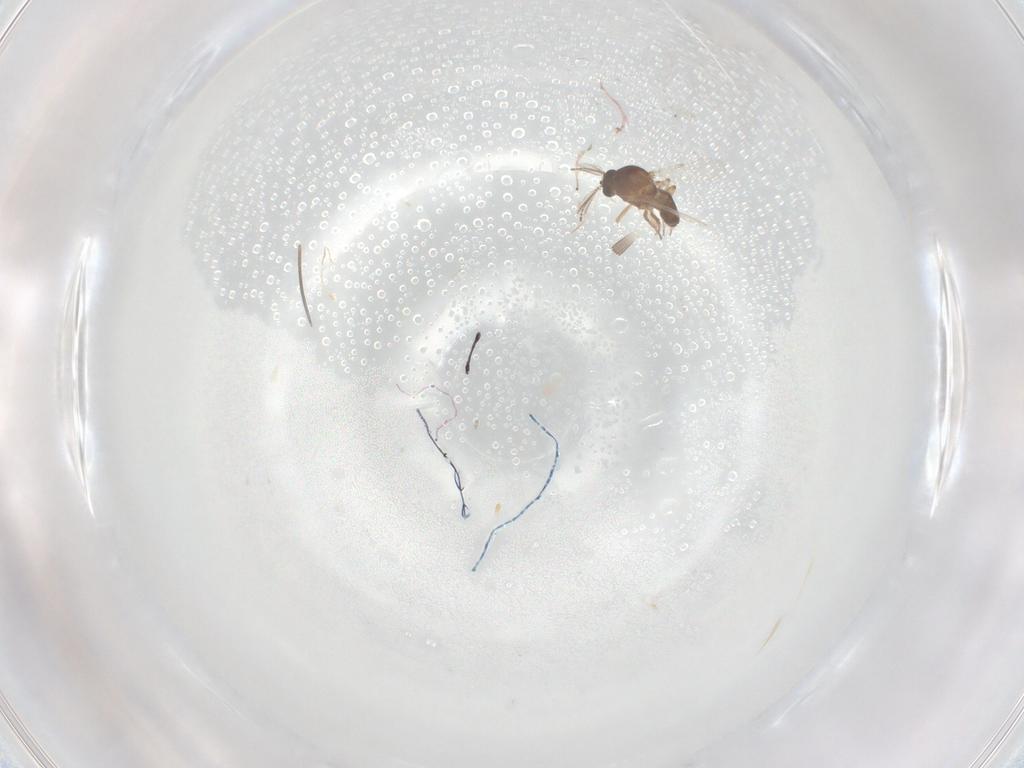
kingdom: Animalia
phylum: Arthropoda
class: Insecta
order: Diptera
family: Ceratopogonidae
